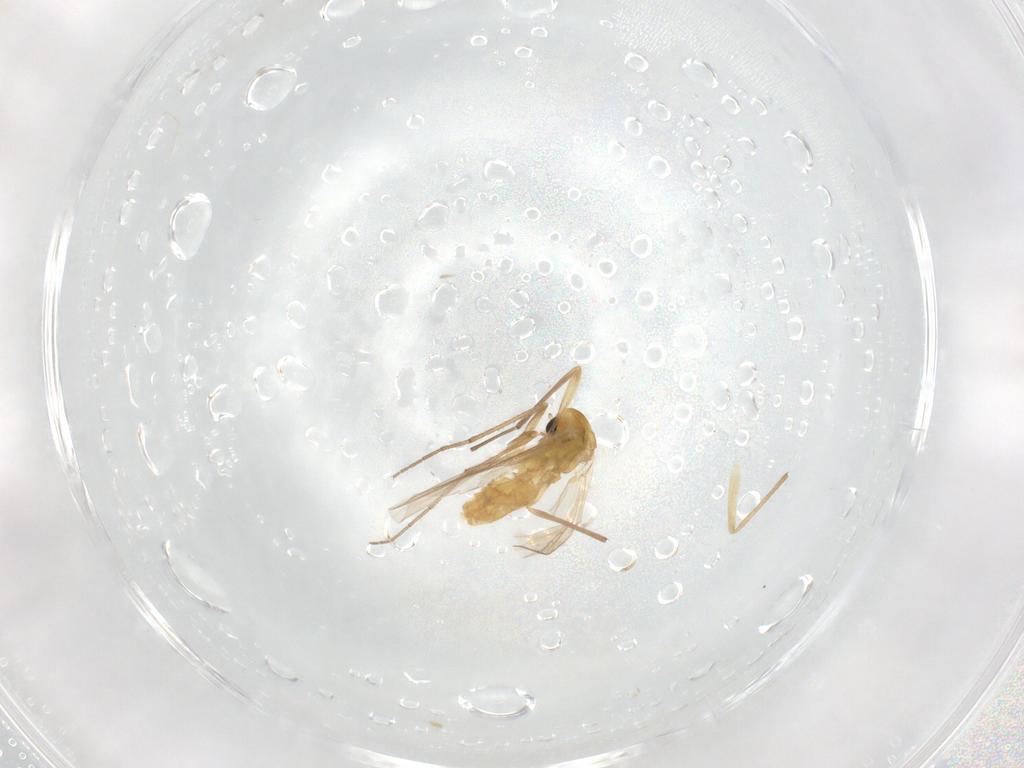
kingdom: Animalia
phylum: Arthropoda
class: Insecta
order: Diptera
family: Chironomidae
